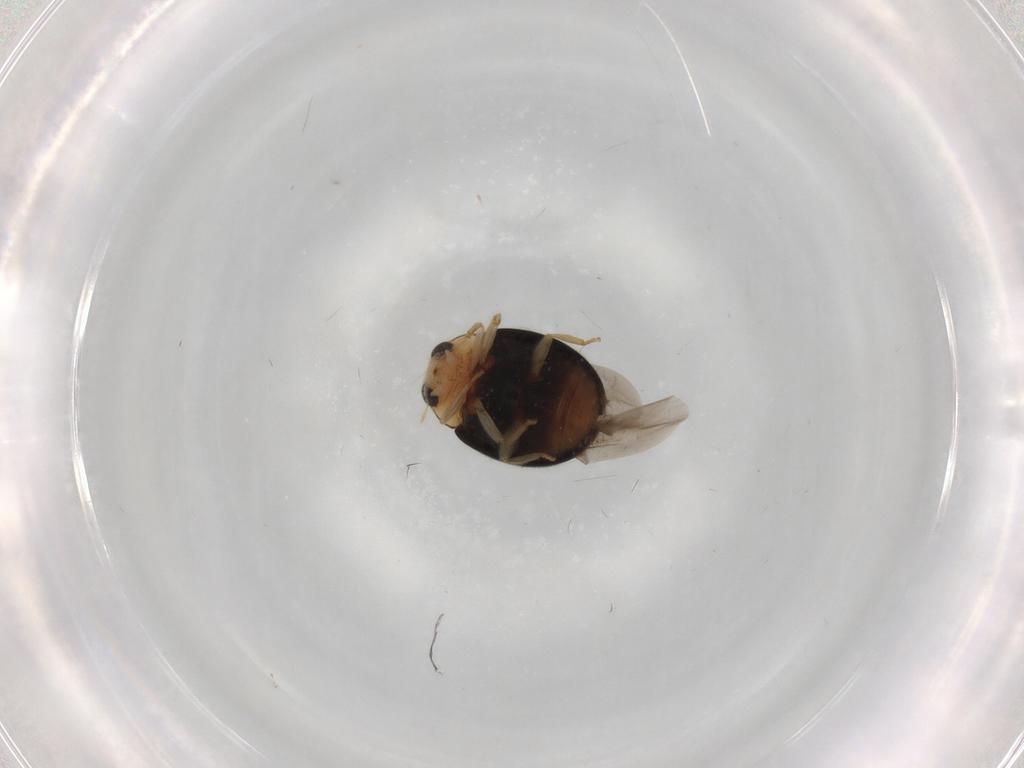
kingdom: Animalia
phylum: Arthropoda
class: Insecta
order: Coleoptera
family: Coccinellidae
